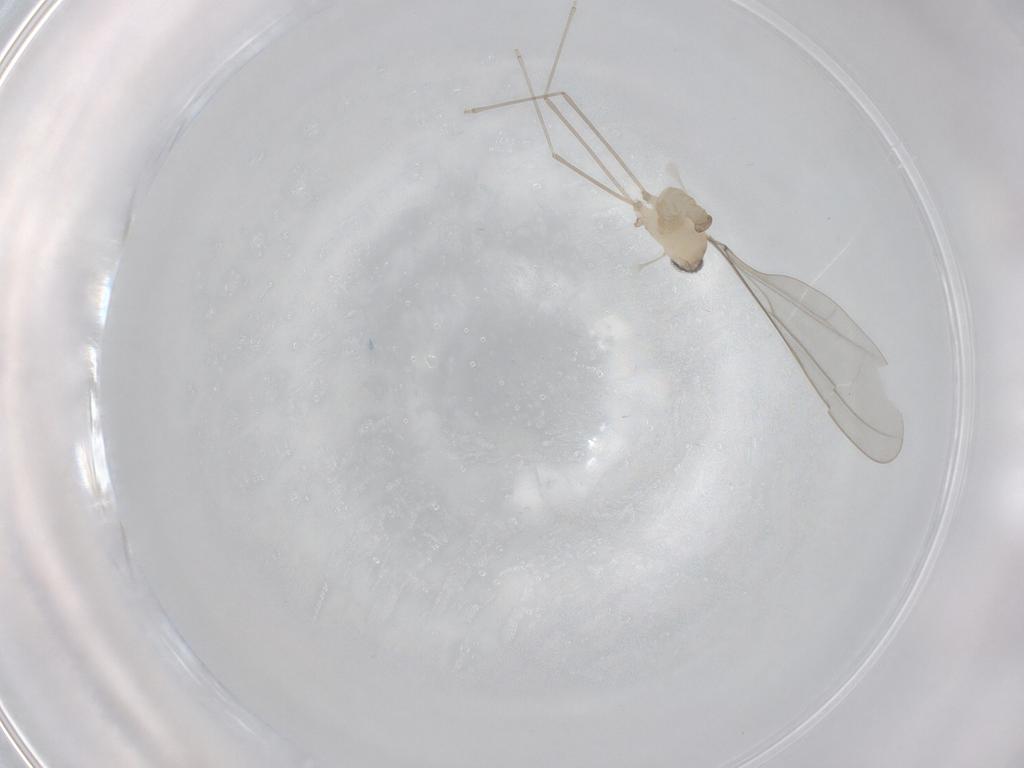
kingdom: Animalia
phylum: Arthropoda
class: Insecta
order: Diptera
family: Cecidomyiidae
